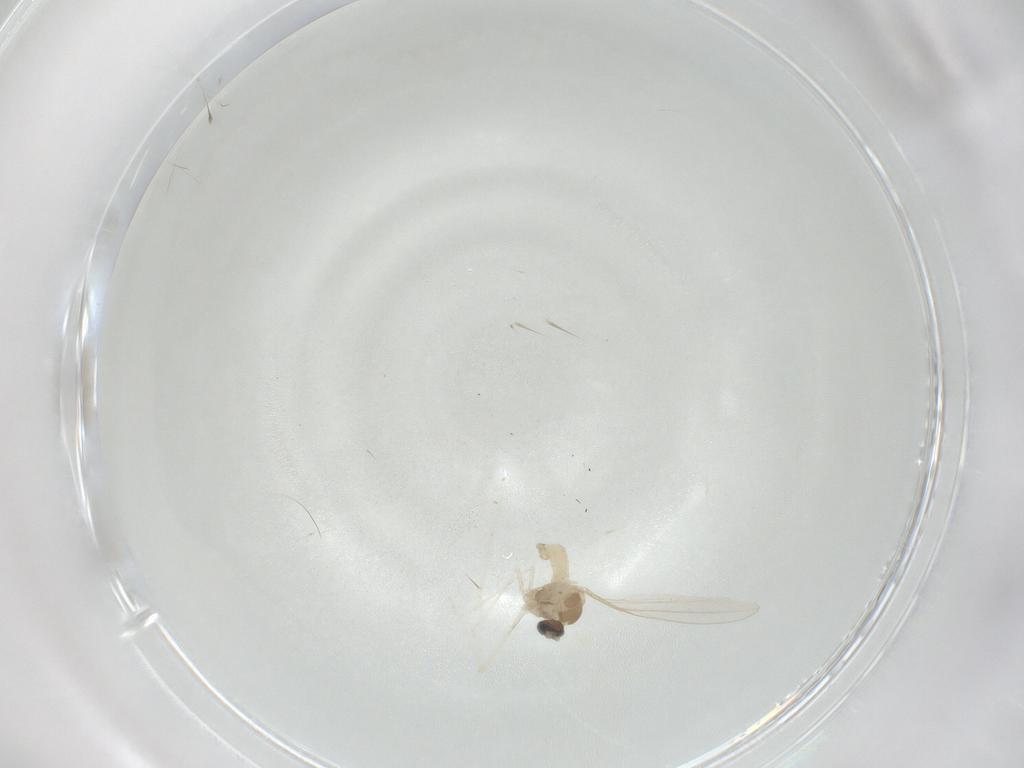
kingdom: Animalia
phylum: Arthropoda
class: Insecta
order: Diptera
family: Cecidomyiidae
